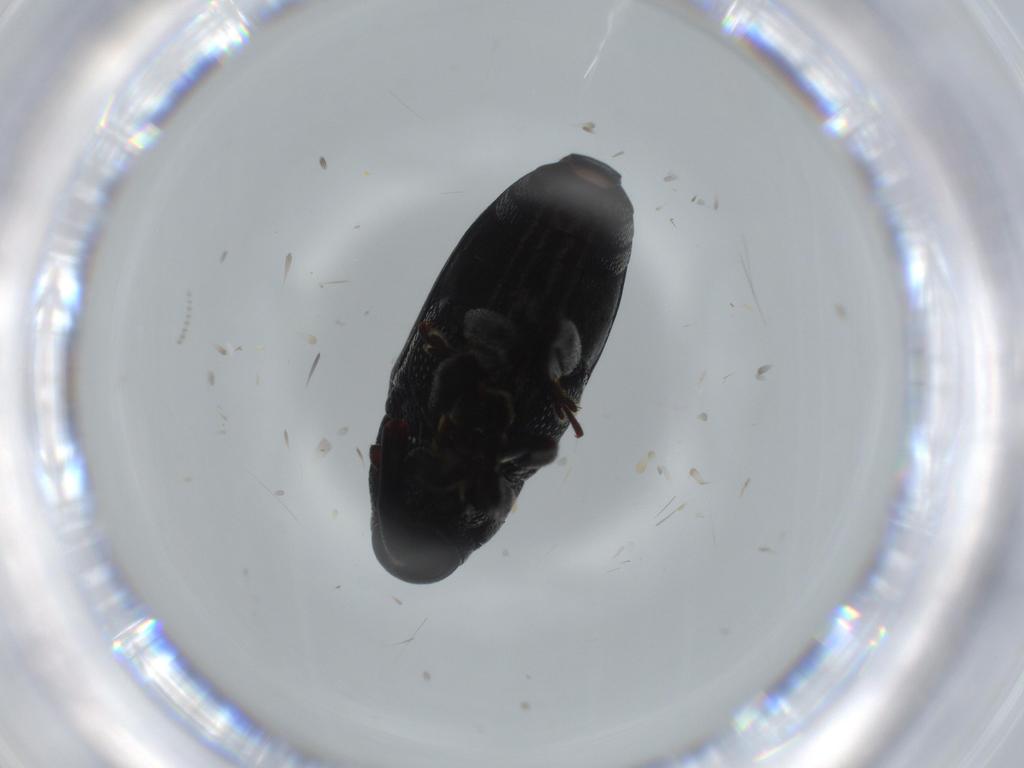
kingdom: Animalia
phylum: Arthropoda
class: Insecta
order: Coleoptera
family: Curculionidae
